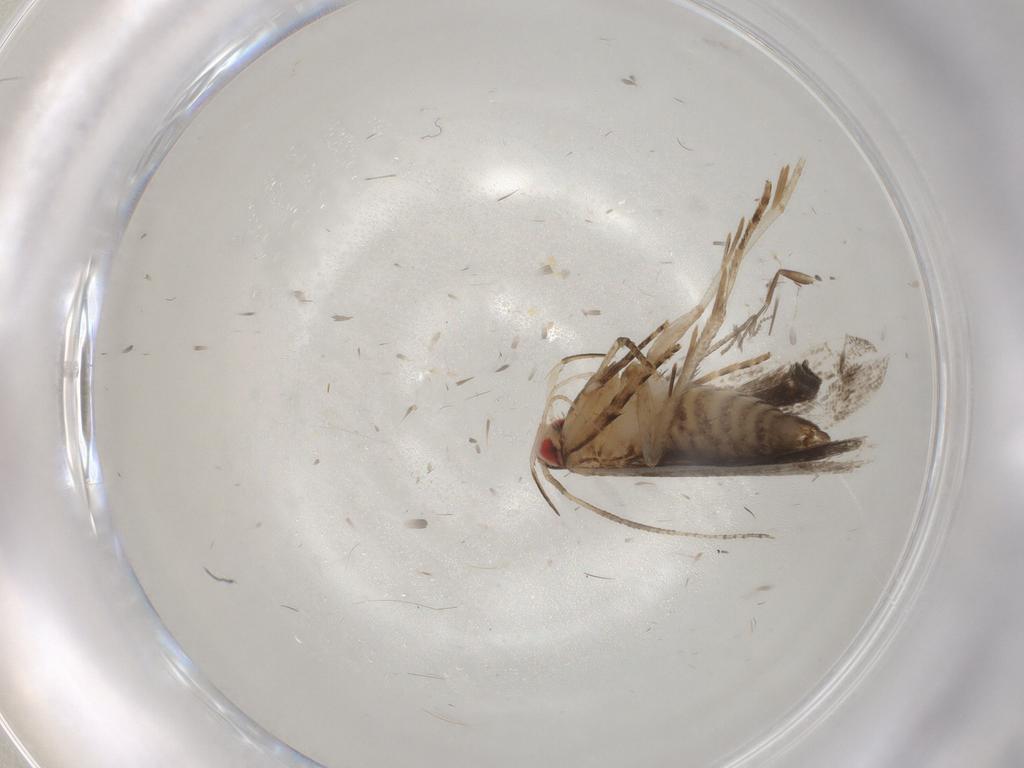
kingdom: Animalia
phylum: Arthropoda
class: Insecta
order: Lepidoptera
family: Gelechiidae
